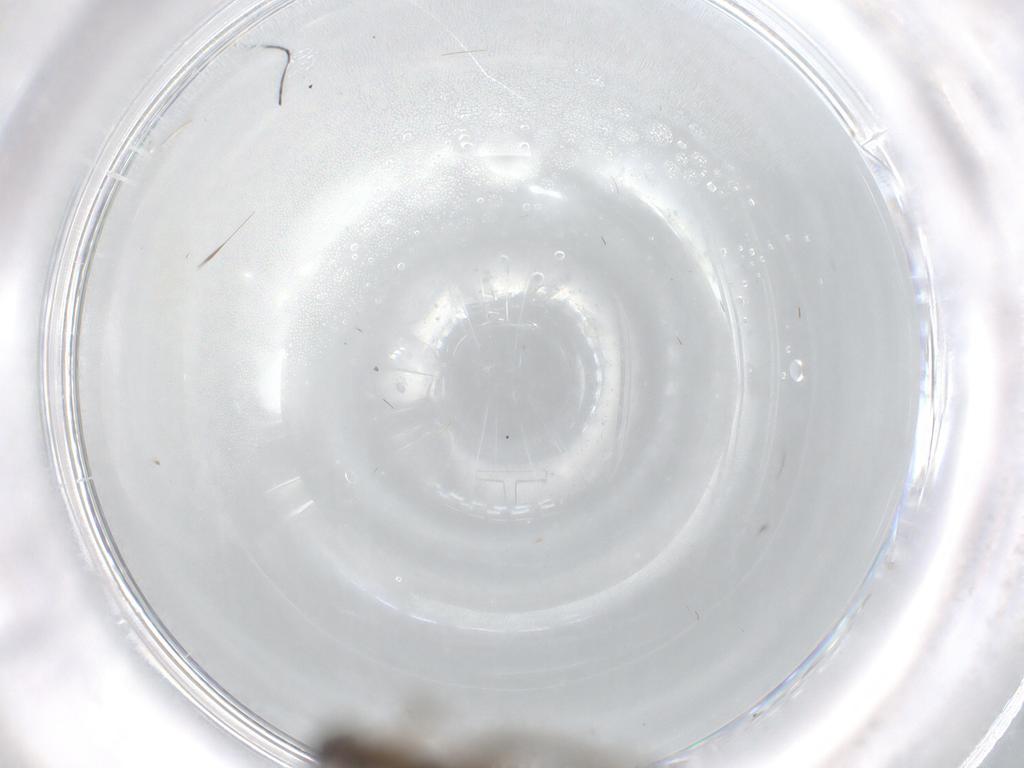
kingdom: Animalia
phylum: Arthropoda
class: Insecta
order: Diptera
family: Phoridae
